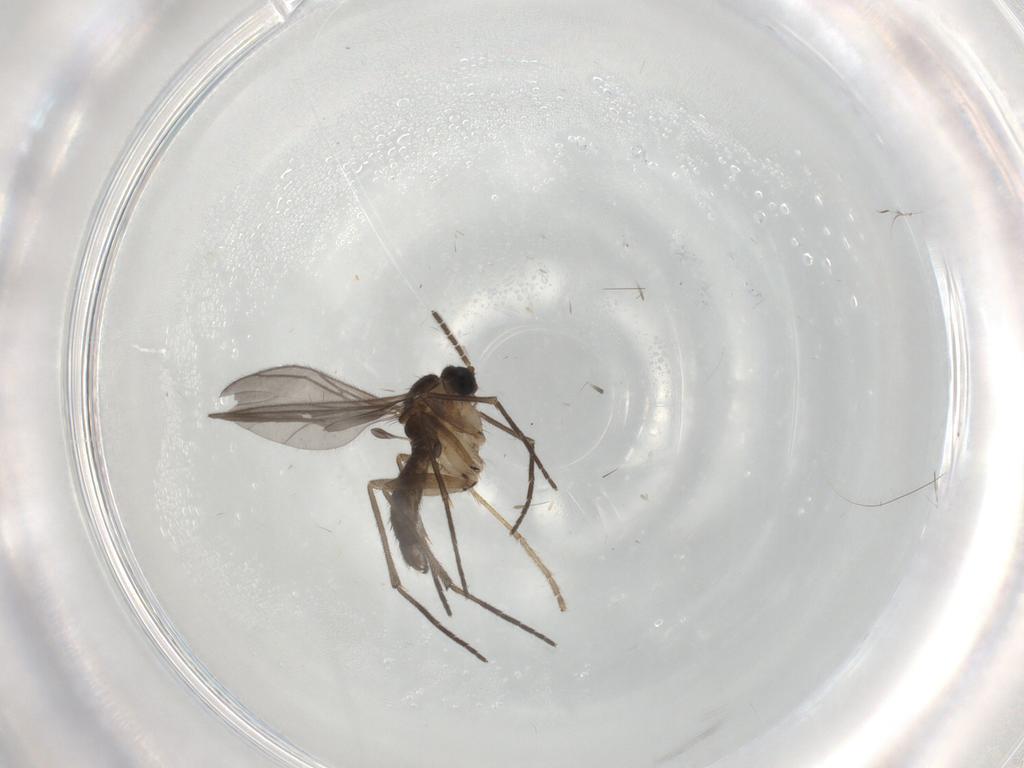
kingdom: Animalia
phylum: Arthropoda
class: Insecta
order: Diptera
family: Sciaridae
